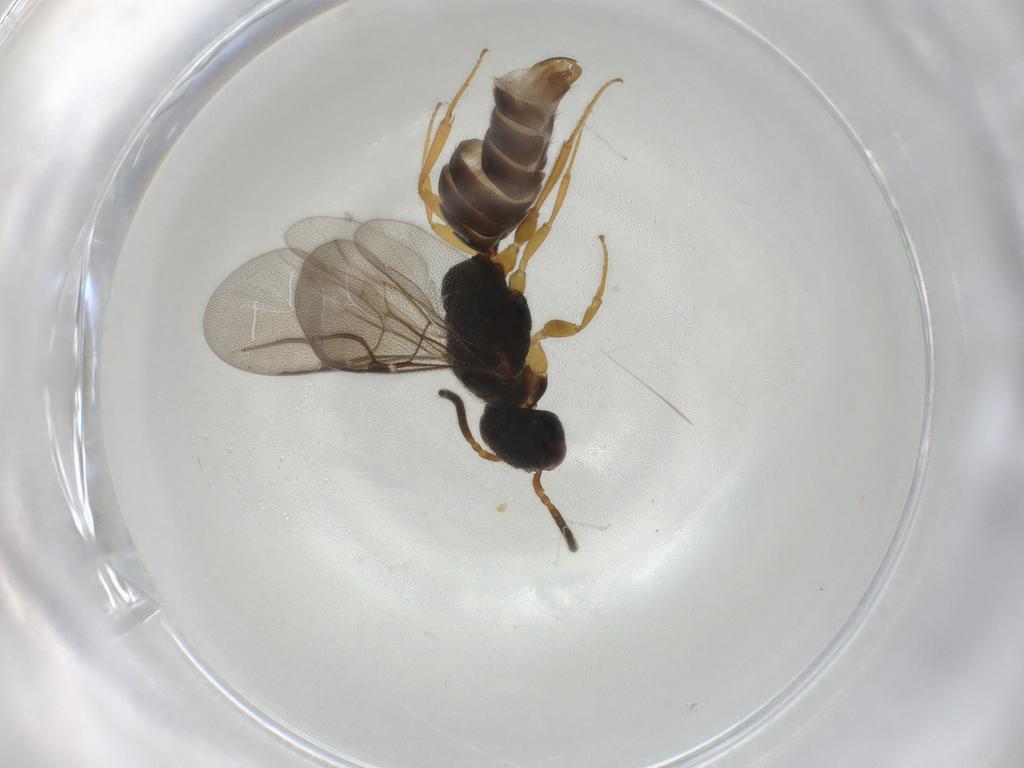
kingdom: Animalia
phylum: Arthropoda
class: Insecta
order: Hymenoptera
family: Bethylidae
